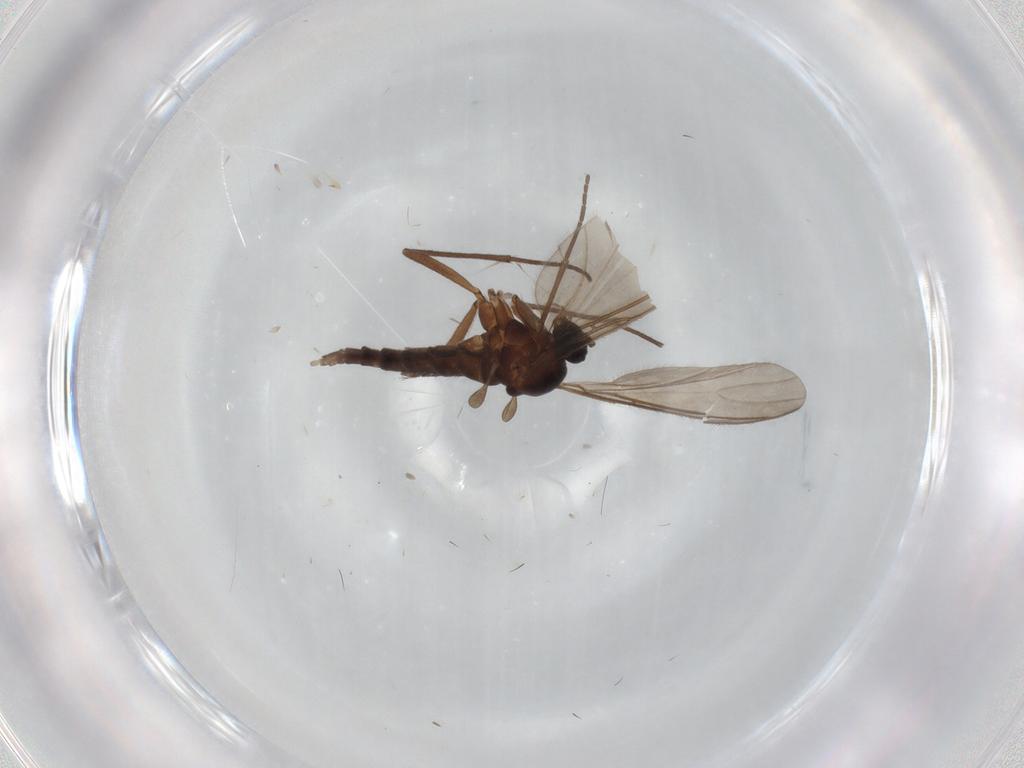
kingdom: Animalia
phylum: Arthropoda
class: Insecta
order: Diptera
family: Sciaridae
